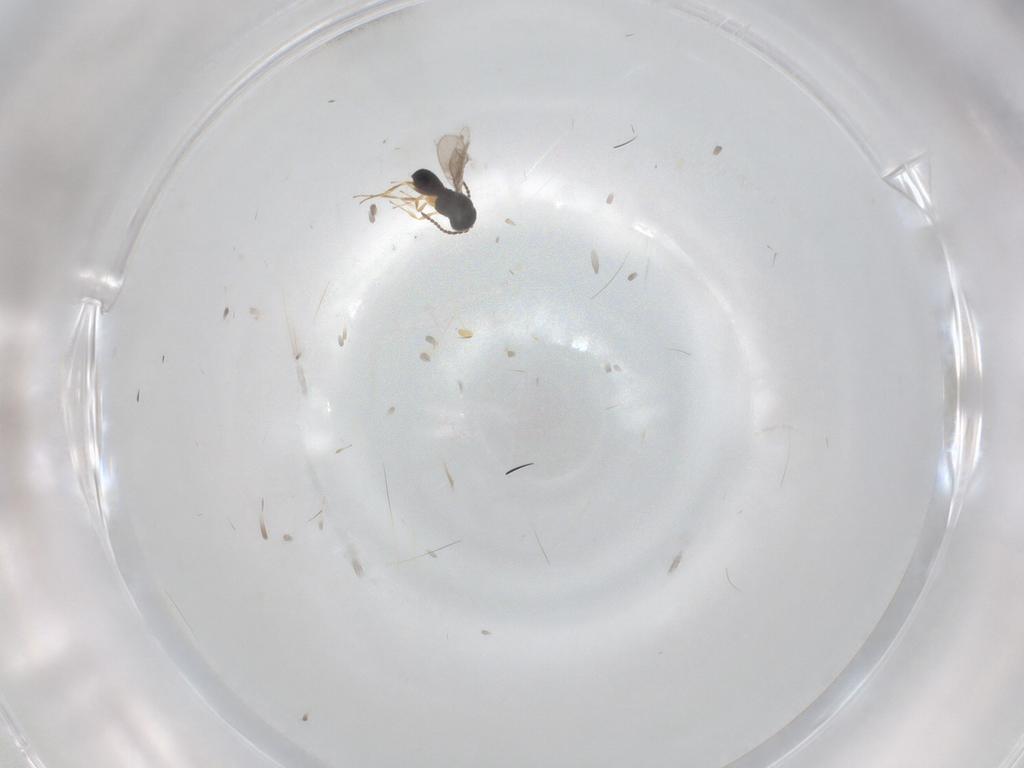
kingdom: Animalia
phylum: Arthropoda
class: Insecta
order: Hymenoptera
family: Scelionidae
